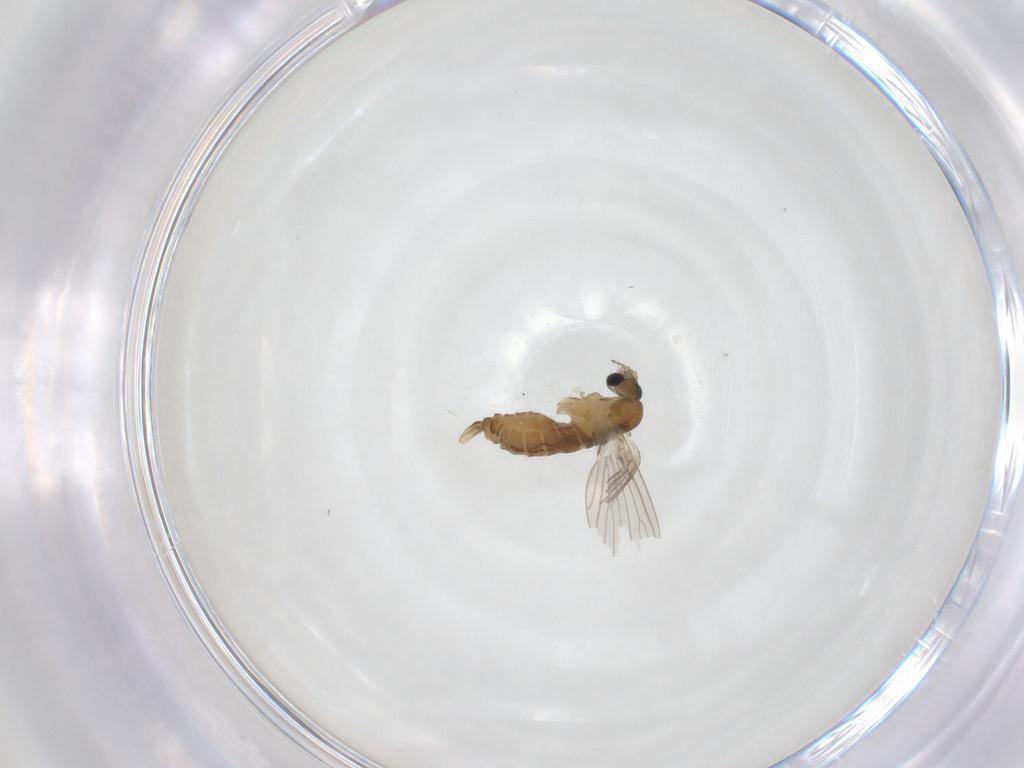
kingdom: Animalia
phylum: Arthropoda
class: Insecta
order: Diptera
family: Psychodidae
